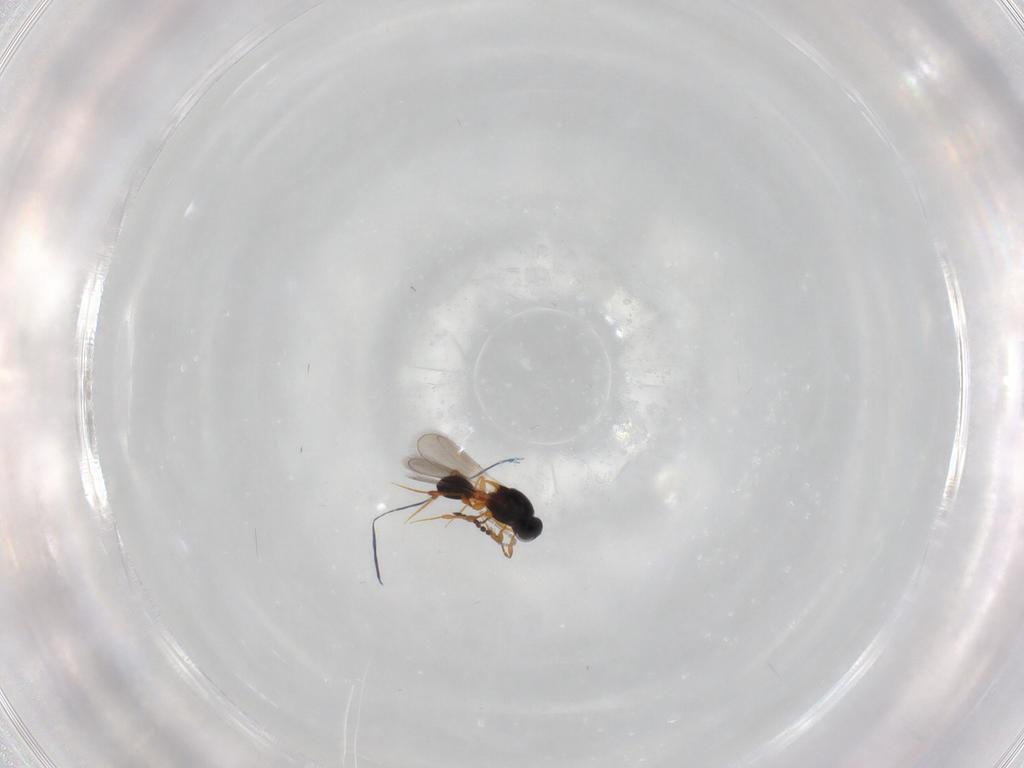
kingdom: Animalia
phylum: Arthropoda
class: Insecta
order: Hymenoptera
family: Platygastridae
